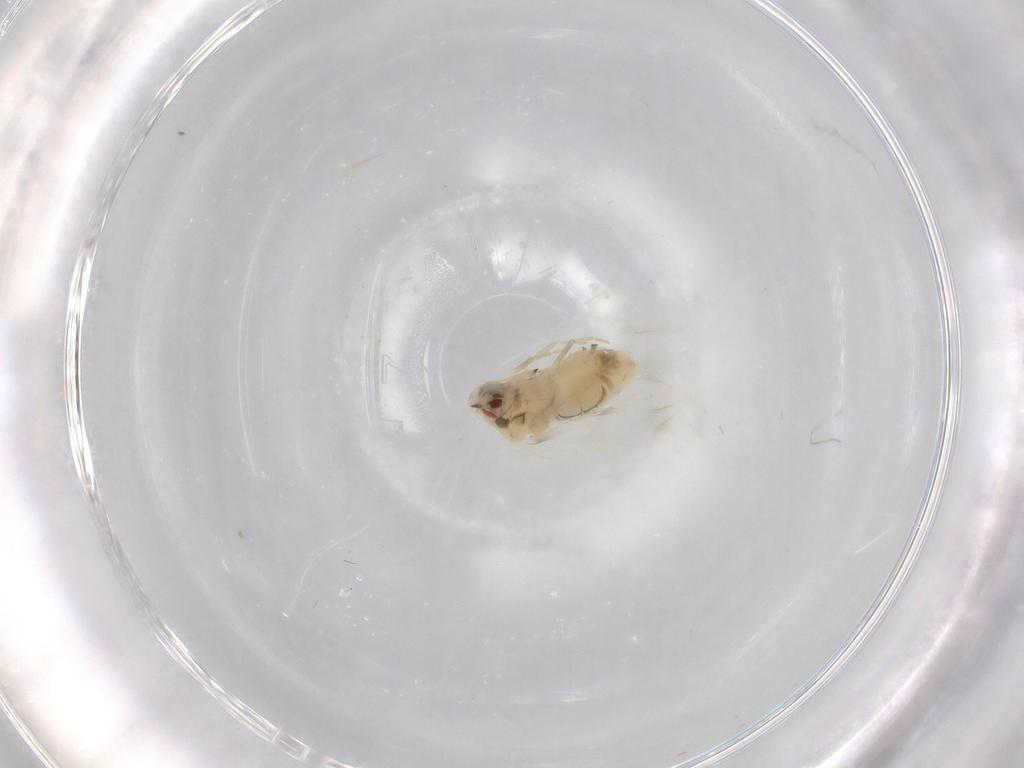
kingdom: Animalia
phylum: Arthropoda
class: Insecta
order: Hemiptera
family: Aleyrodidae
